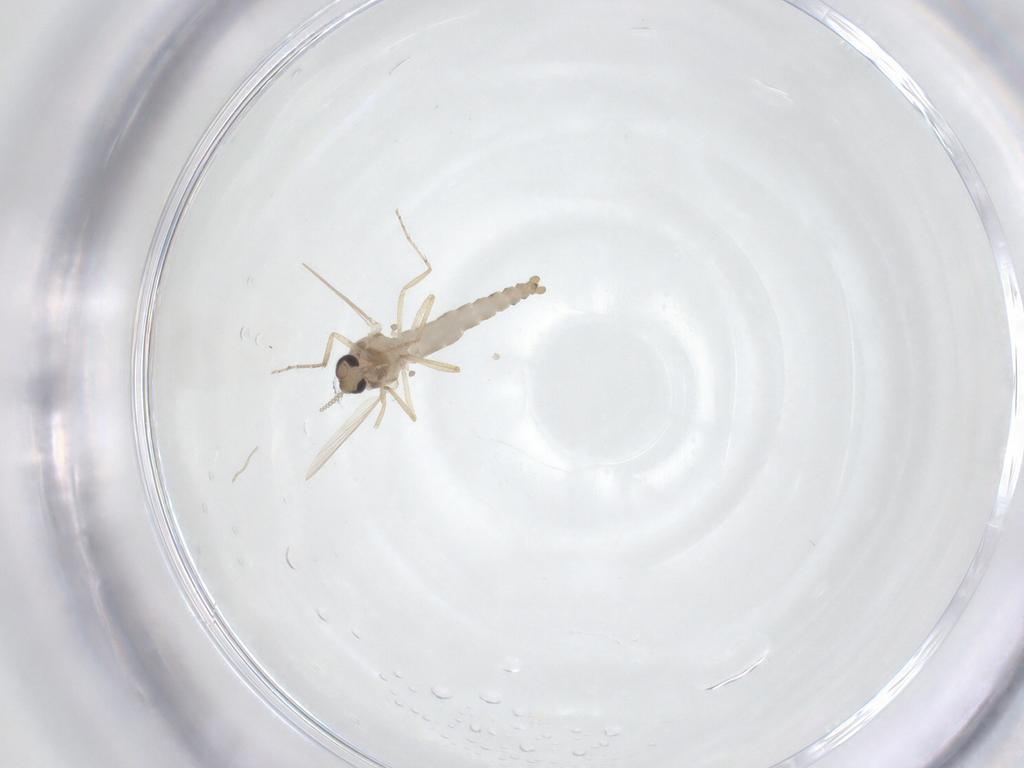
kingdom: Animalia
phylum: Arthropoda
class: Insecta
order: Diptera
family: Ceratopogonidae
